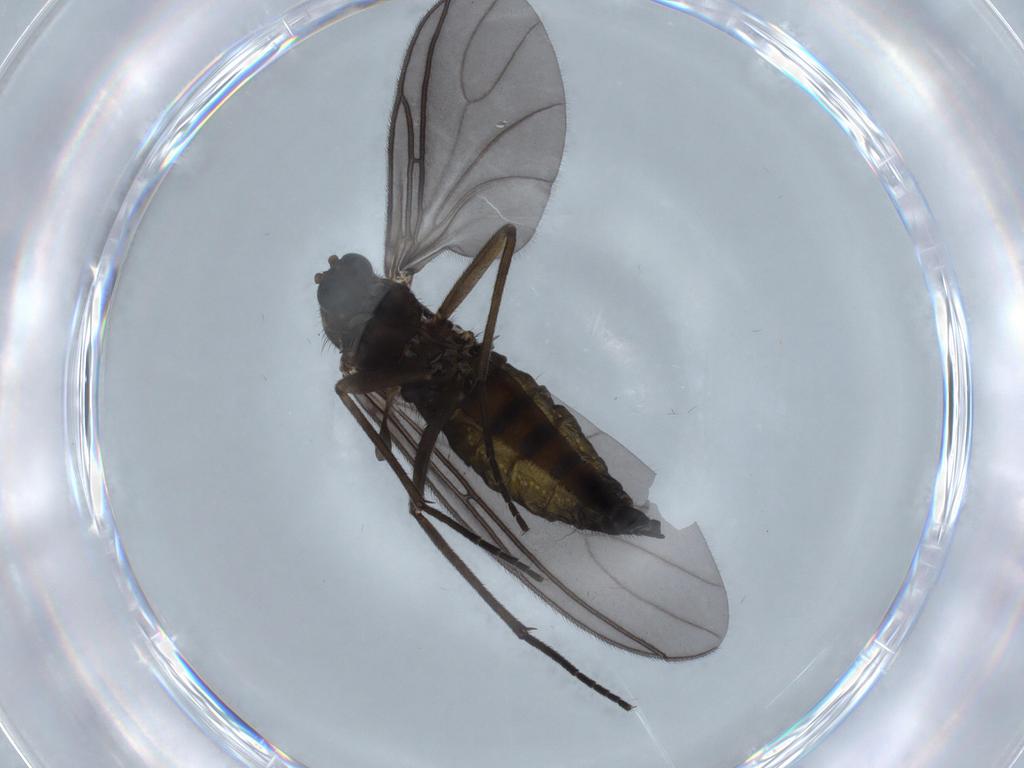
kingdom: Animalia
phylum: Arthropoda
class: Insecta
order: Diptera
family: Sciaridae
